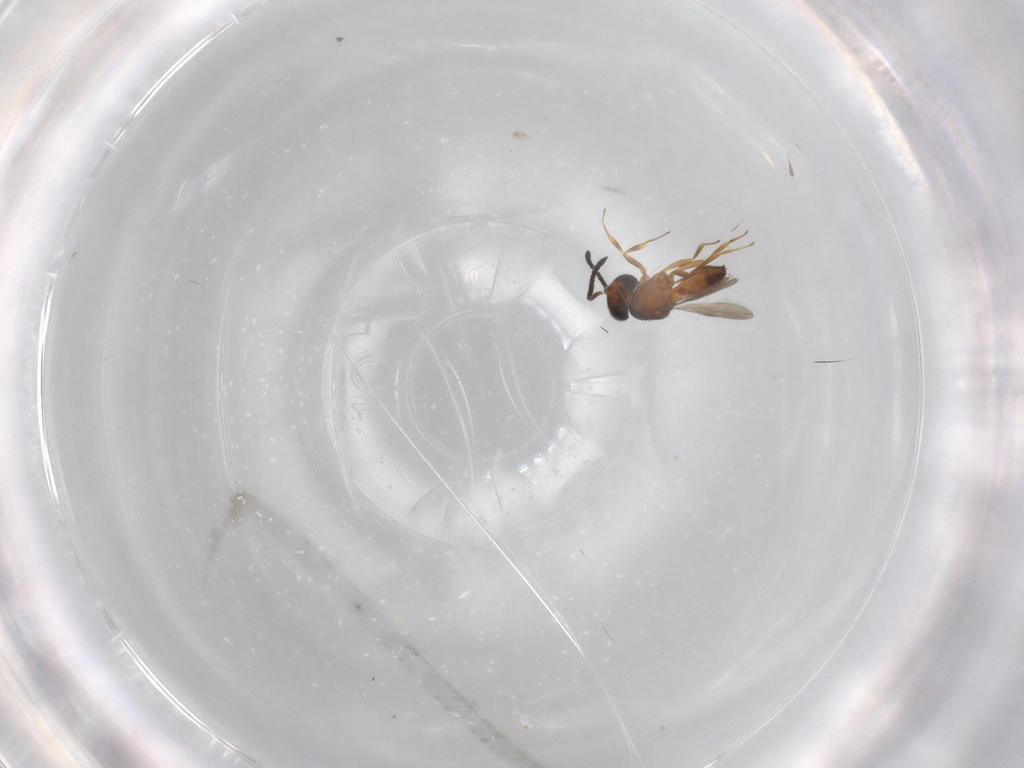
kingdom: Animalia
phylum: Arthropoda
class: Insecta
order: Hymenoptera
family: Scelionidae
